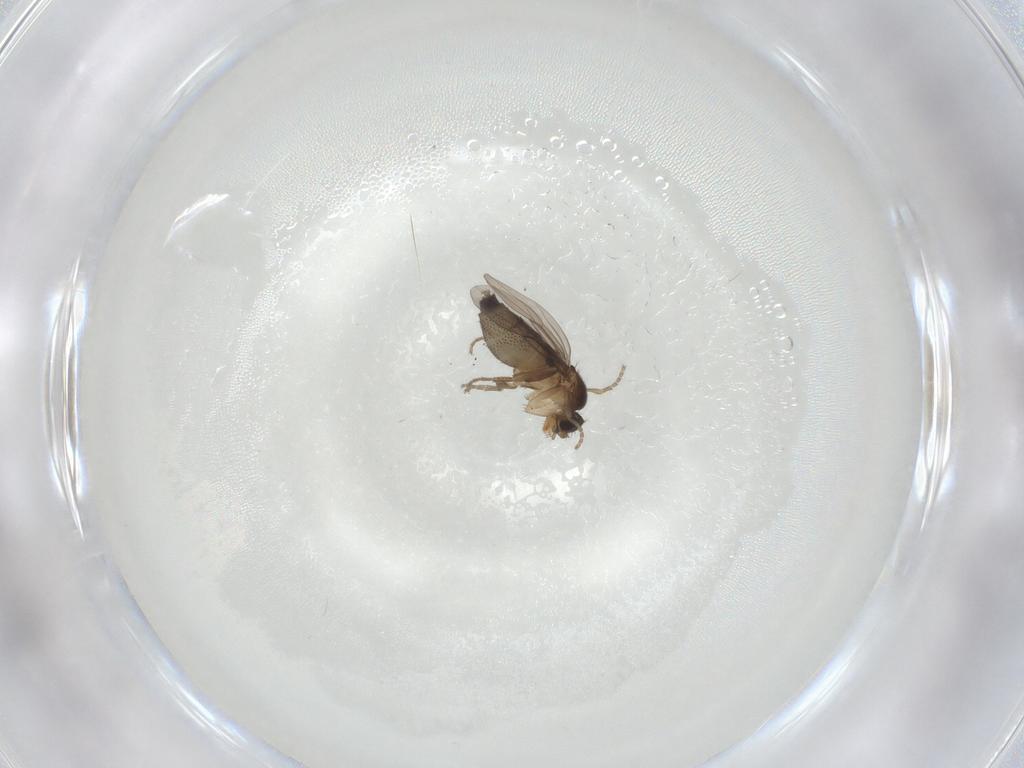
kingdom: Animalia
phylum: Arthropoda
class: Insecta
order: Diptera
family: Phoridae
